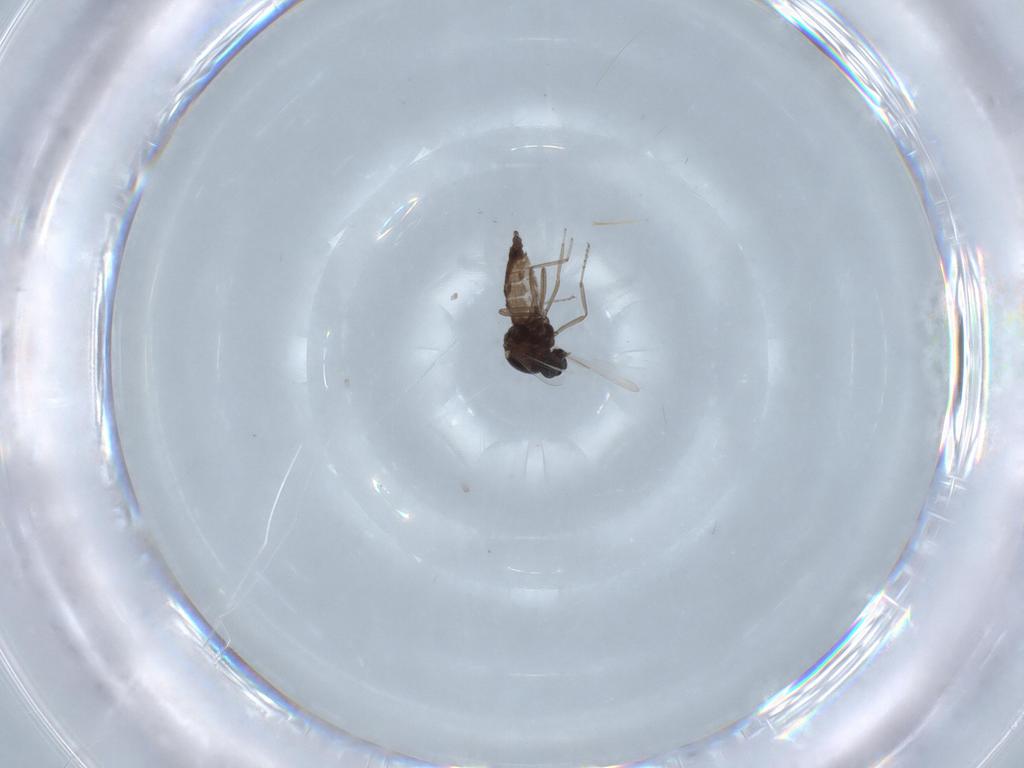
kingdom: Animalia
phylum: Arthropoda
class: Insecta
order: Diptera
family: Ceratopogonidae
